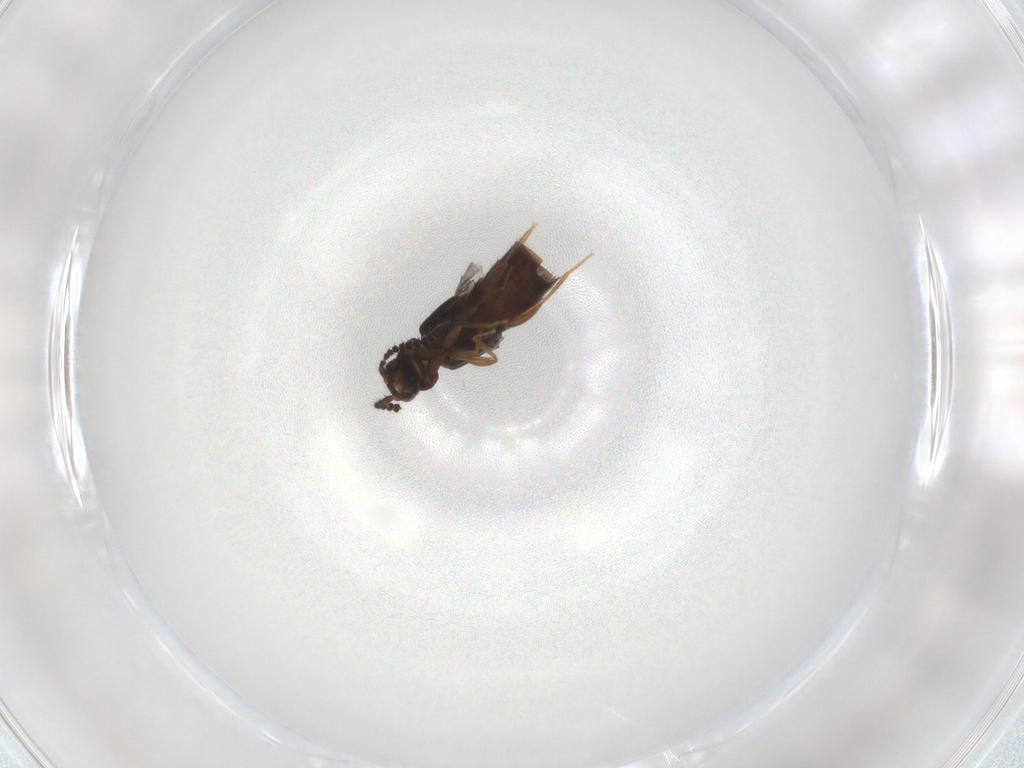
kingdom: Animalia
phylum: Arthropoda
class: Insecta
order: Coleoptera
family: Staphylinidae
